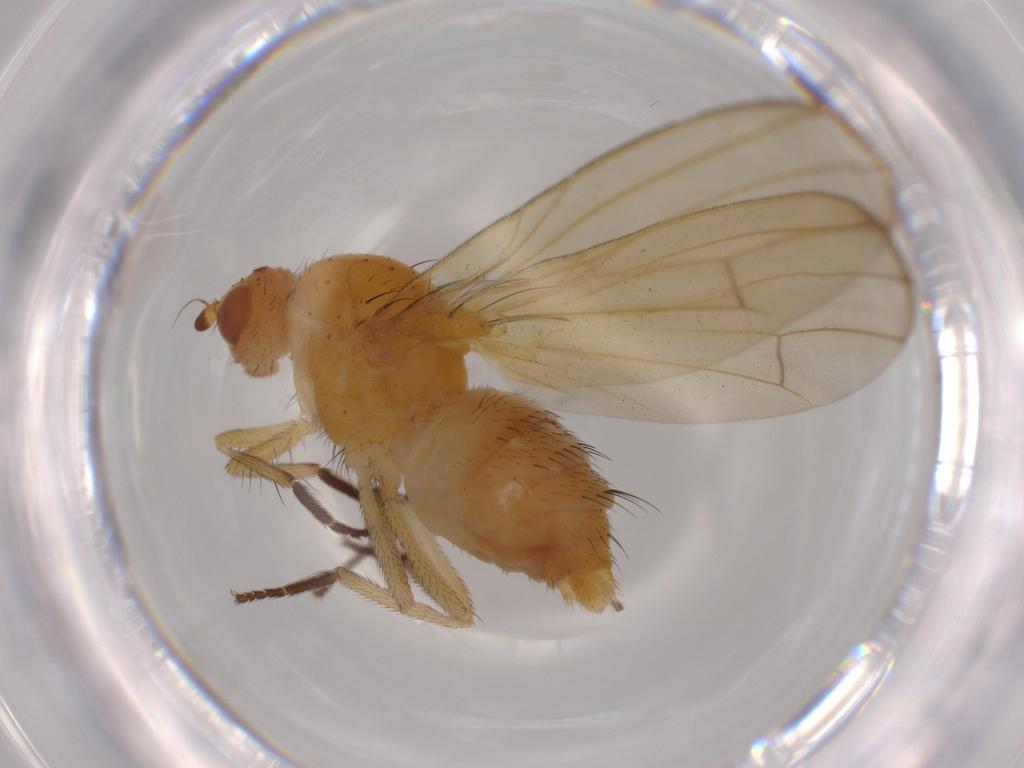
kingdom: Animalia
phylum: Arthropoda
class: Insecta
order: Diptera
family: Lauxaniidae
